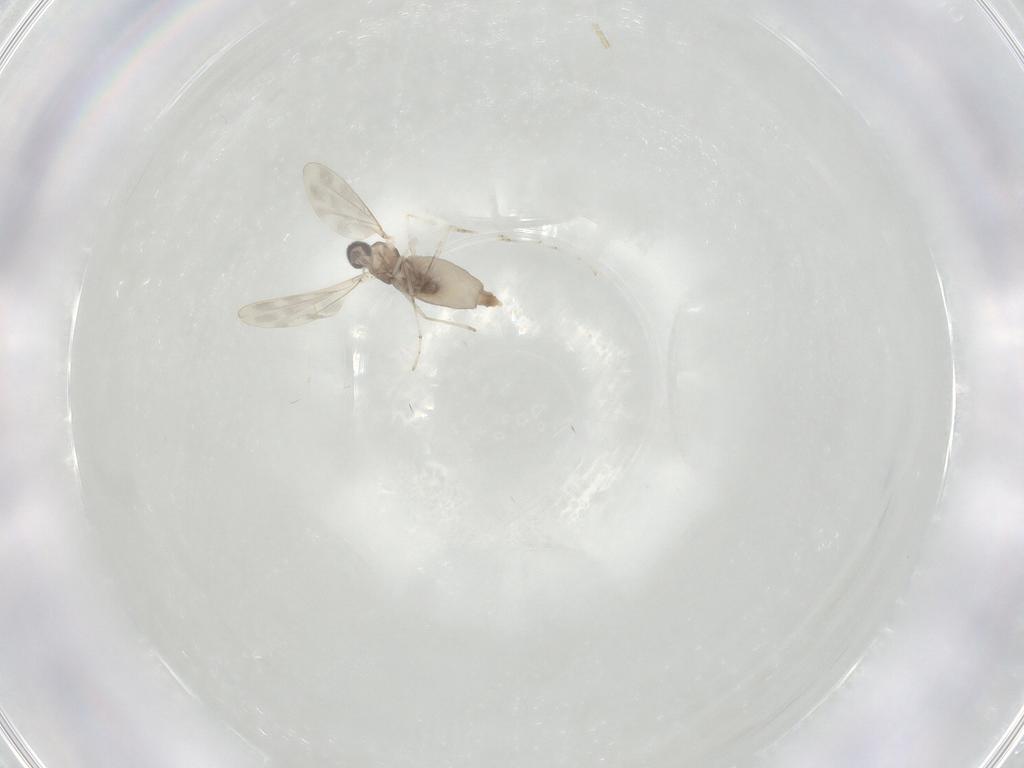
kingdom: Animalia
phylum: Arthropoda
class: Insecta
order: Diptera
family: Cecidomyiidae
